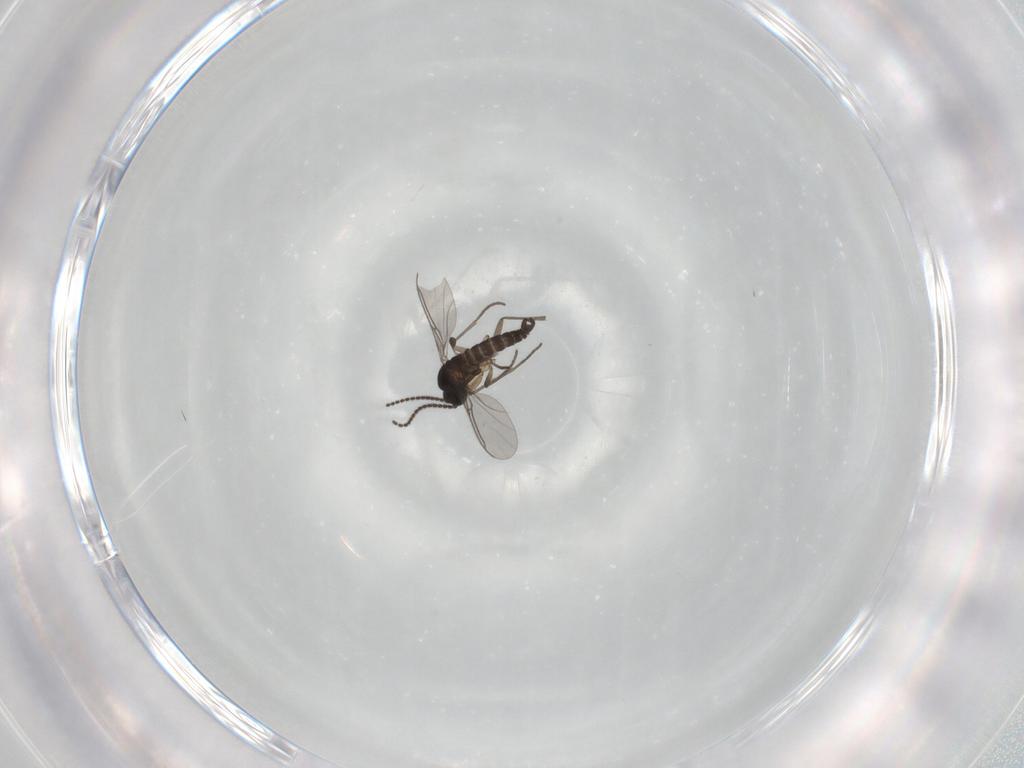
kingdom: Animalia
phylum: Arthropoda
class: Insecta
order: Diptera
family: Sciaridae
